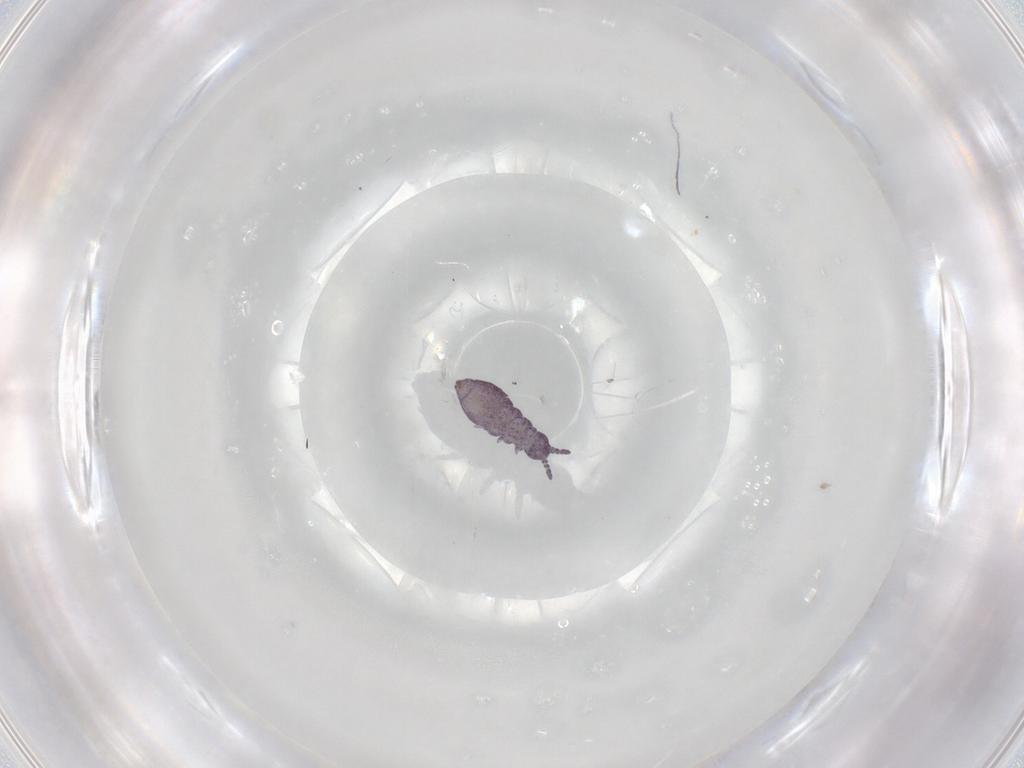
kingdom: Animalia
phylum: Arthropoda
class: Collembola
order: Poduromorpha
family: Brachystomellidae
